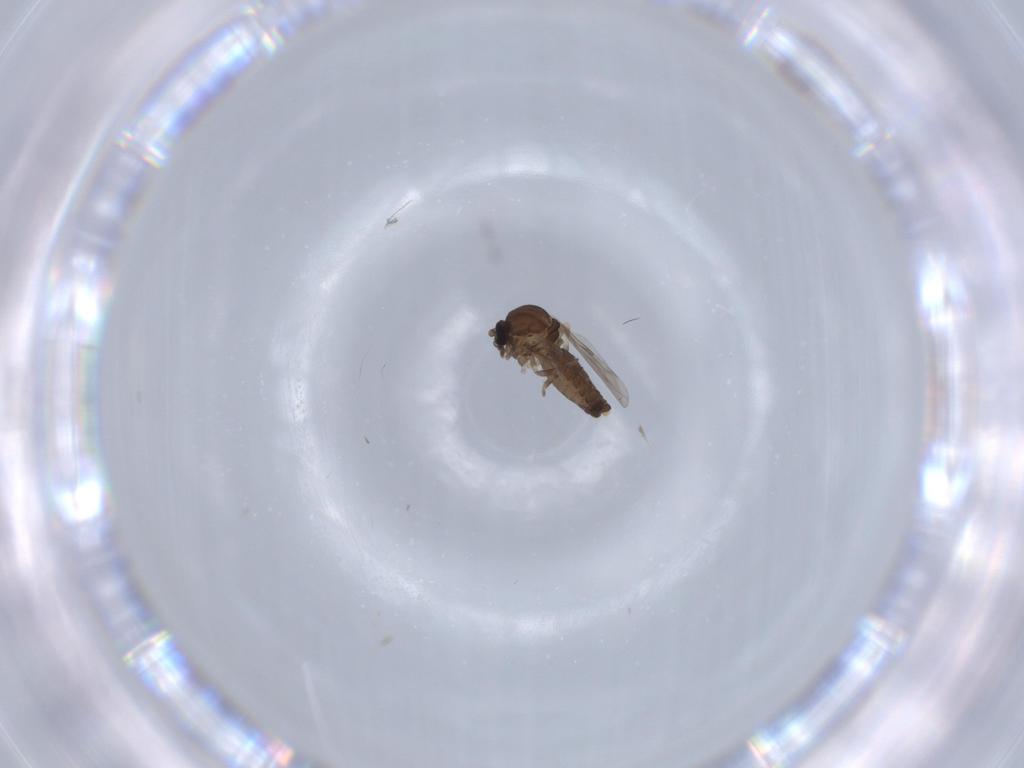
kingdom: Animalia
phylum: Arthropoda
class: Insecta
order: Diptera
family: Ceratopogonidae
